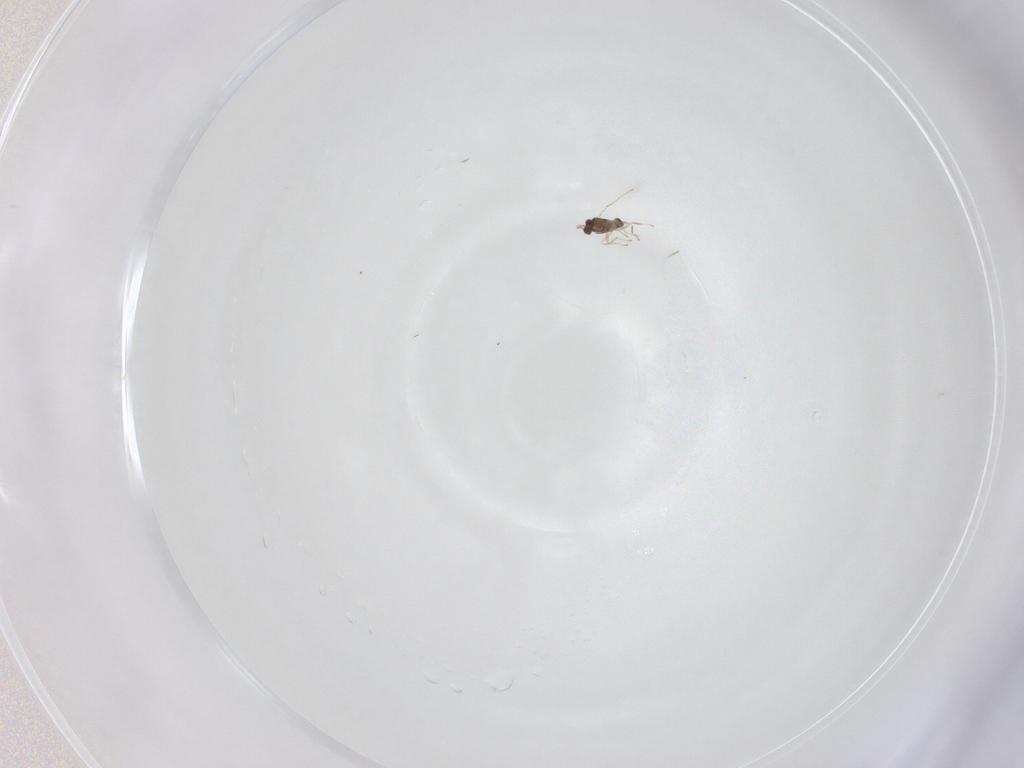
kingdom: Animalia
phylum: Arthropoda
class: Insecta
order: Hymenoptera
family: Mymaridae
